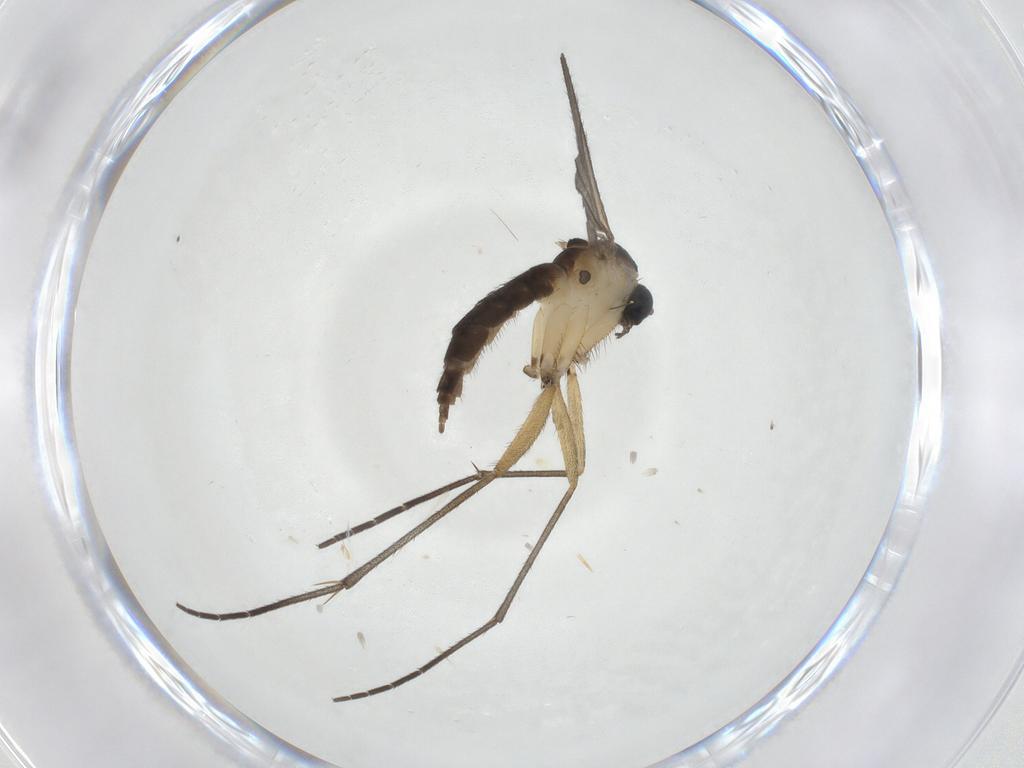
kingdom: Animalia
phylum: Arthropoda
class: Insecta
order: Diptera
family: Sciaridae
